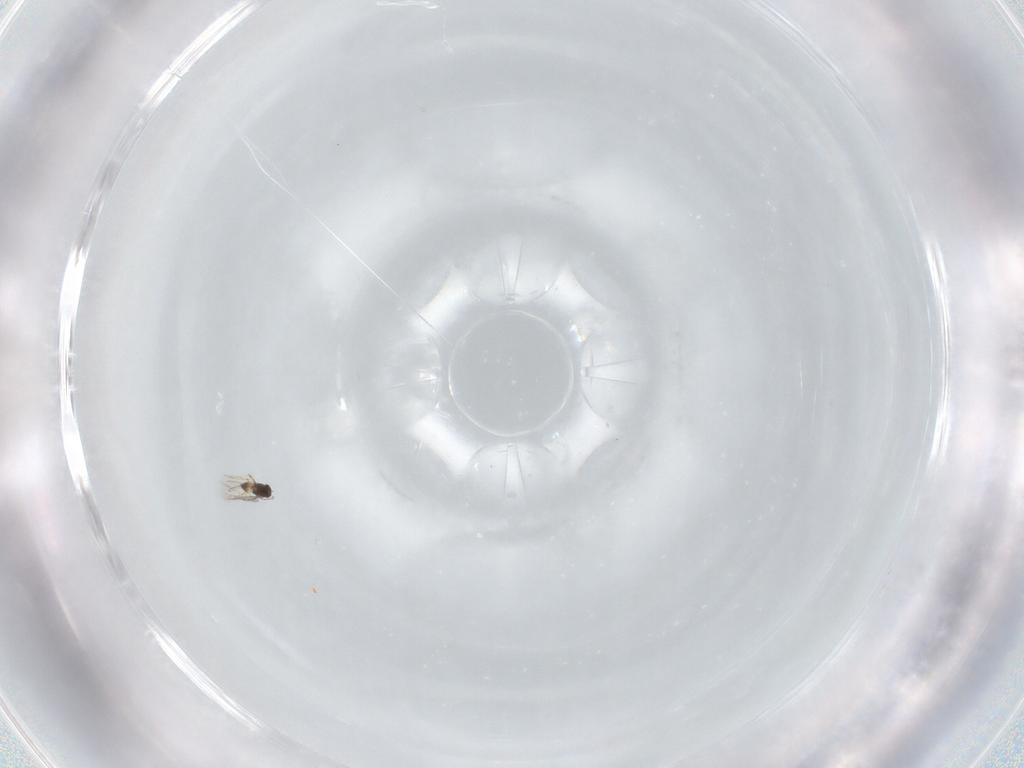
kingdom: Animalia
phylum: Arthropoda
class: Insecta
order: Hymenoptera
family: Mymaridae
